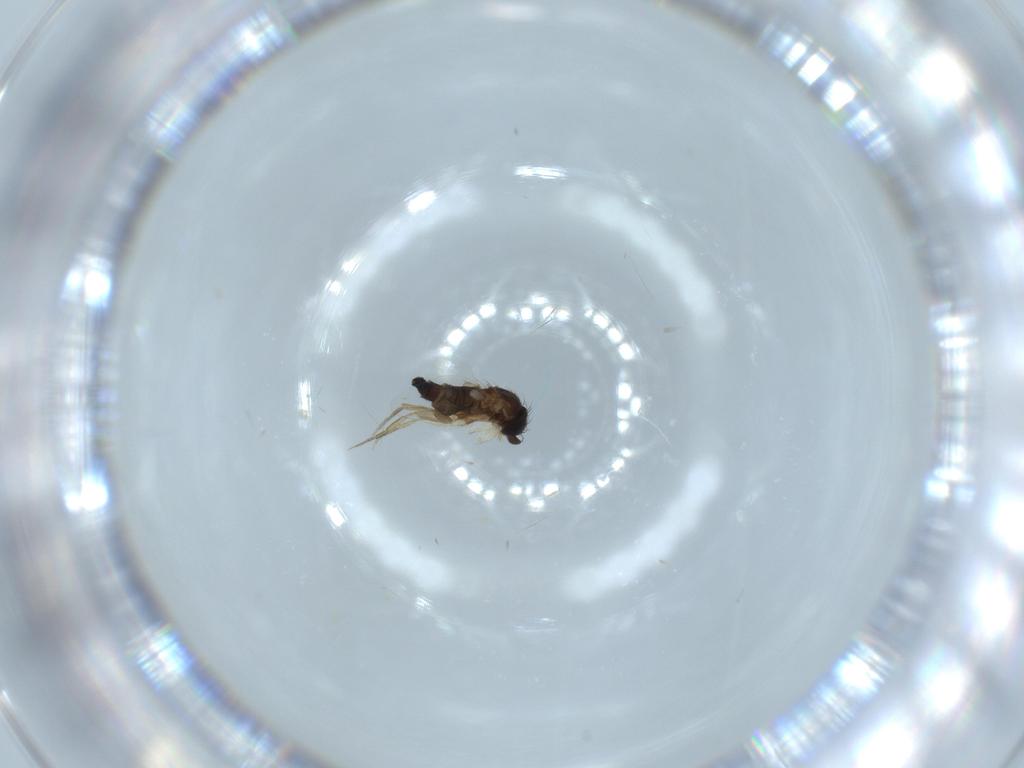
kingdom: Animalia
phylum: Arthropoda
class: Insecta
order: Diptera
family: Phoridae
